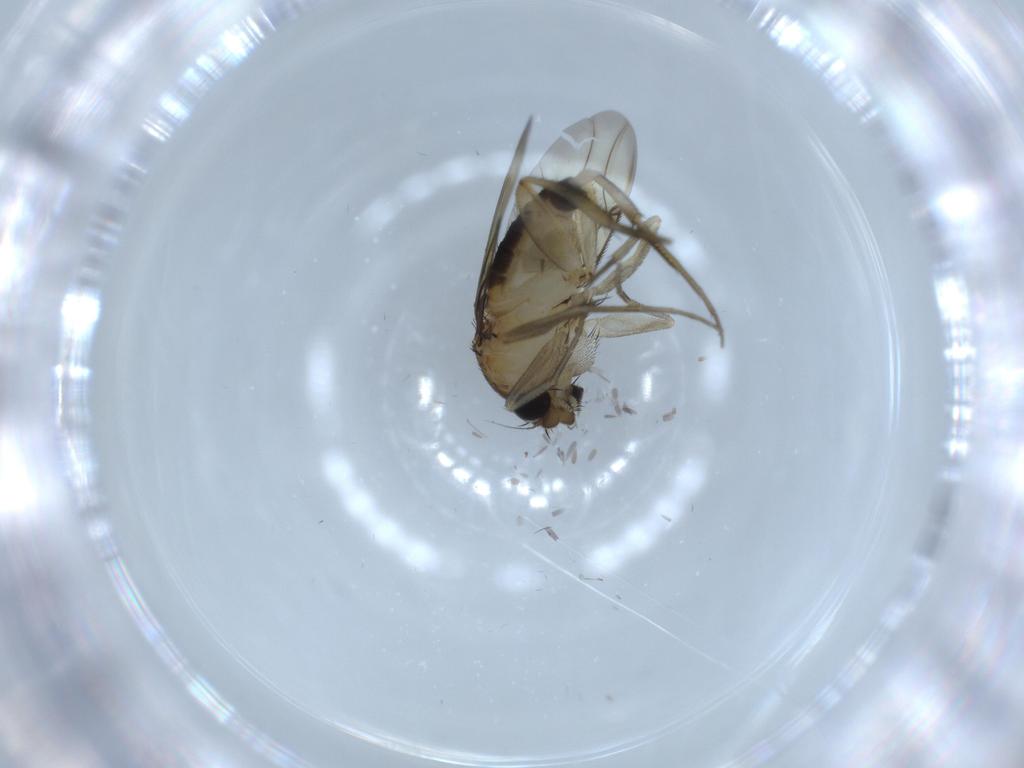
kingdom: Animalia
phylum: Arthropoda
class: Insecta
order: Diptera
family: Phoridae
